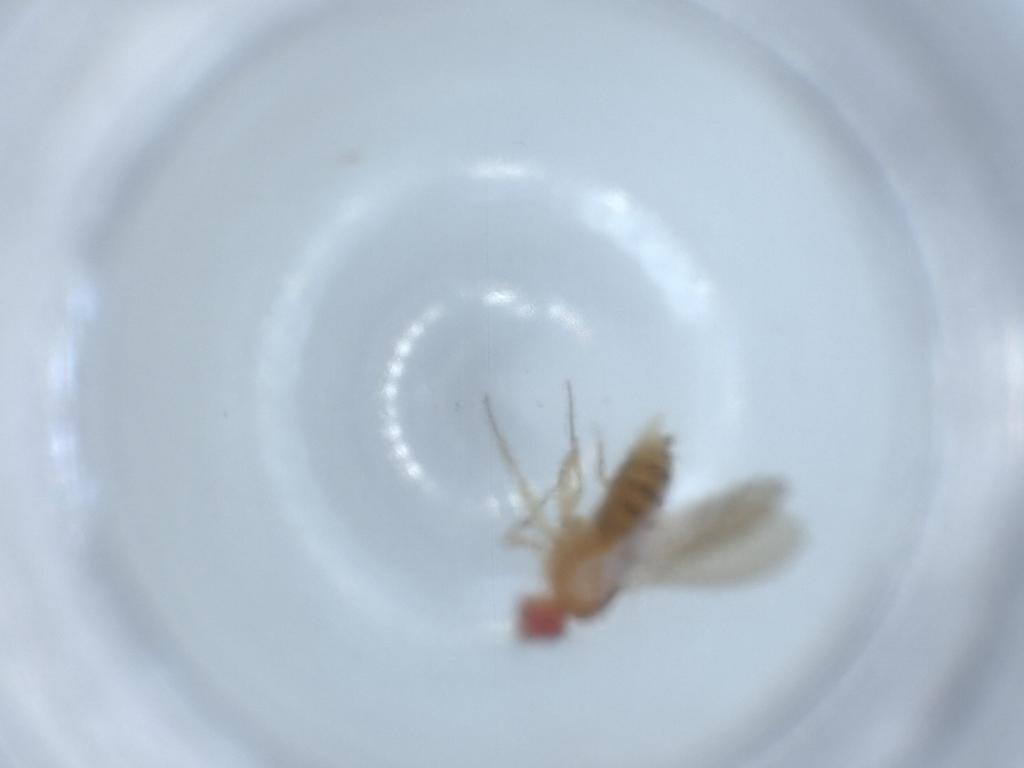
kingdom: Animalia
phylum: Arthropoda
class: Insecta
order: Diptera
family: Drosophilidae
